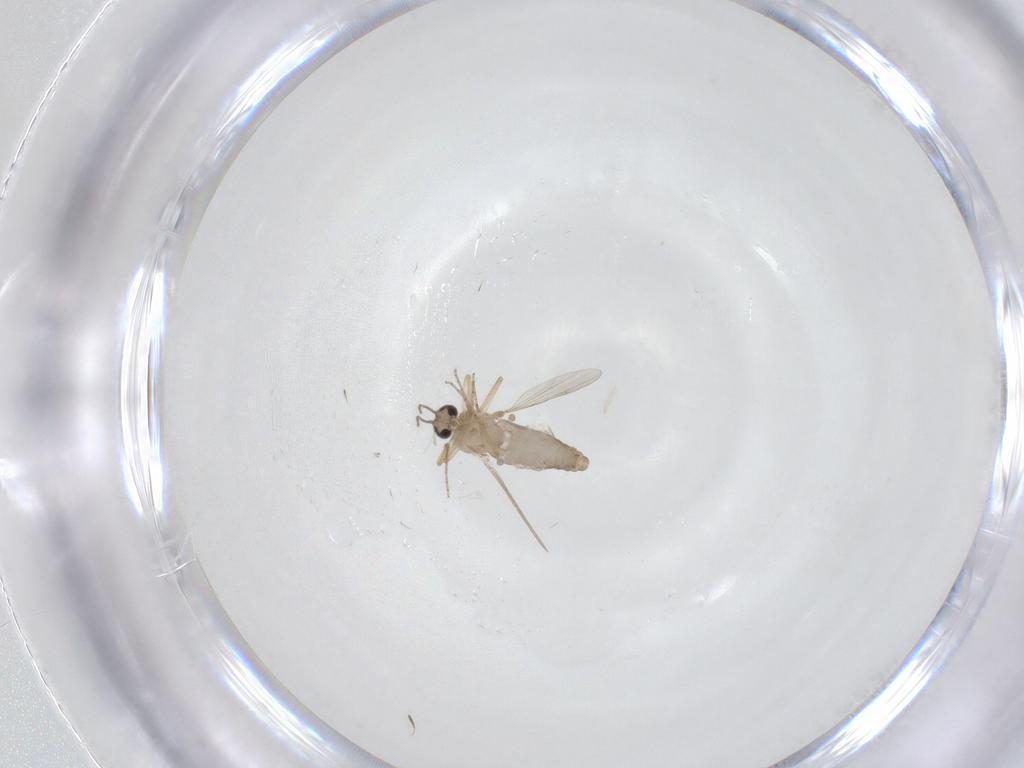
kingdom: Animalia
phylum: Arthropoda
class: Insecta
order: Diptera
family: Ceratopogonidae
